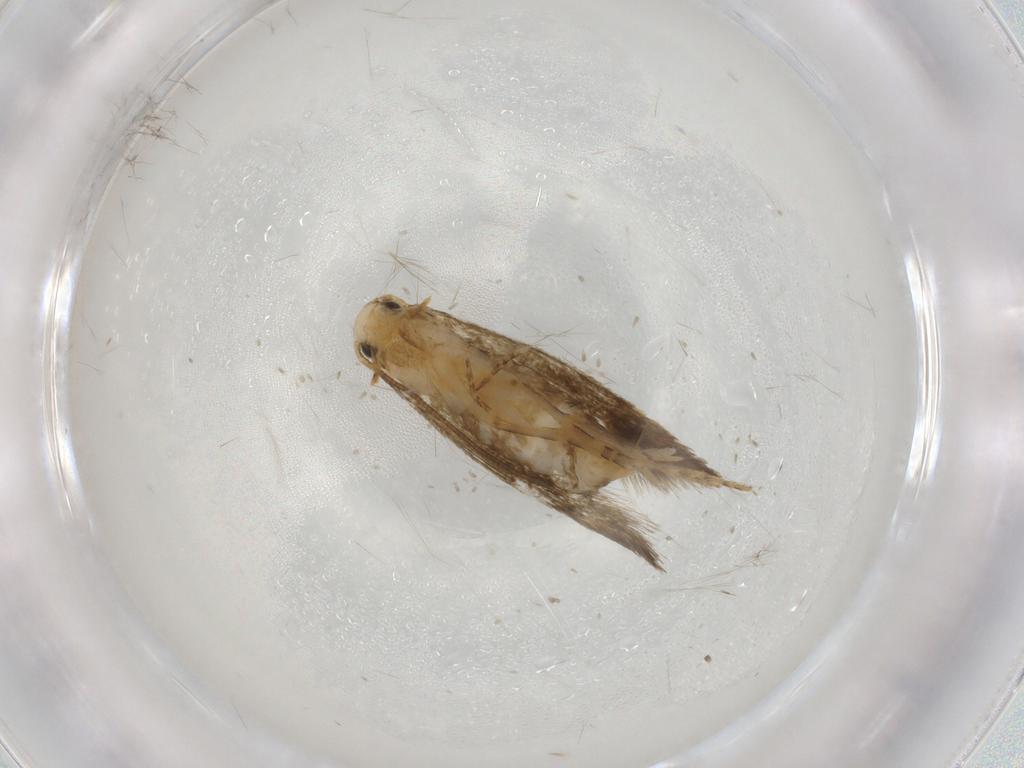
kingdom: Animalia
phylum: Arthropoda
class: Insecta
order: Lepidoptera
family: Tineidae
